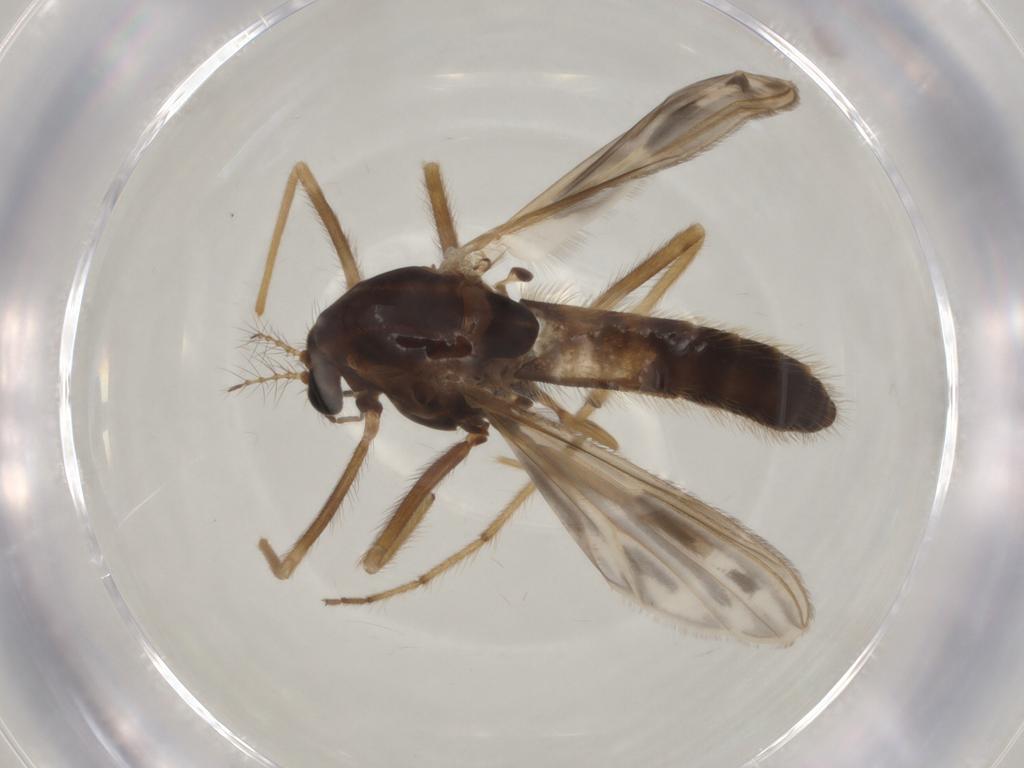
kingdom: Animalia
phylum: Arthropoda
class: Insecta
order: Diptera
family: Chironomidae
